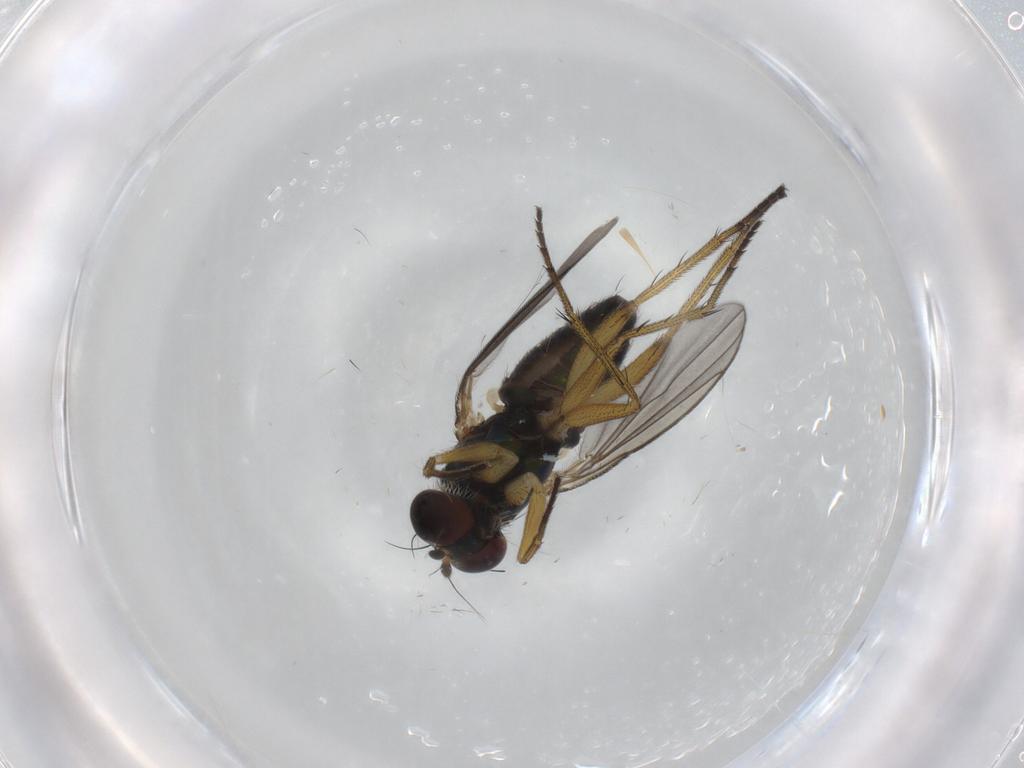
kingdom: Animalia
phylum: Arthropoda
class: Insecta
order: Diptera
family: Dolichopodidae
